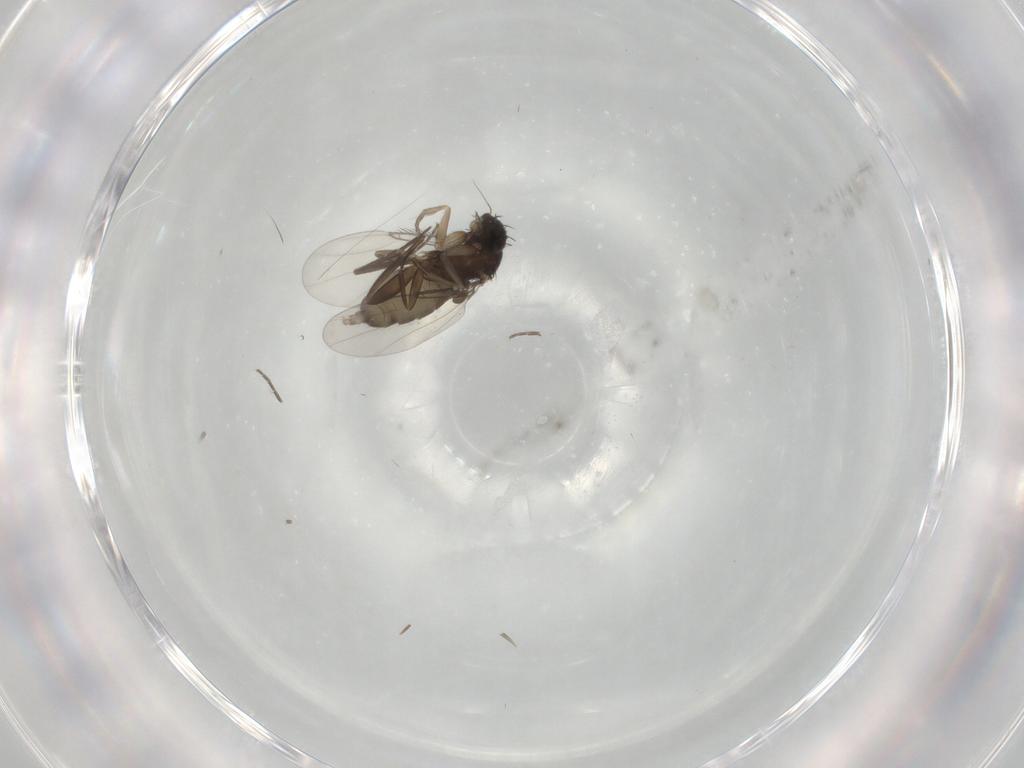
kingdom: Animalia
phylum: Arthropoda
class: Insecta
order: Diptera
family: Phoridae
